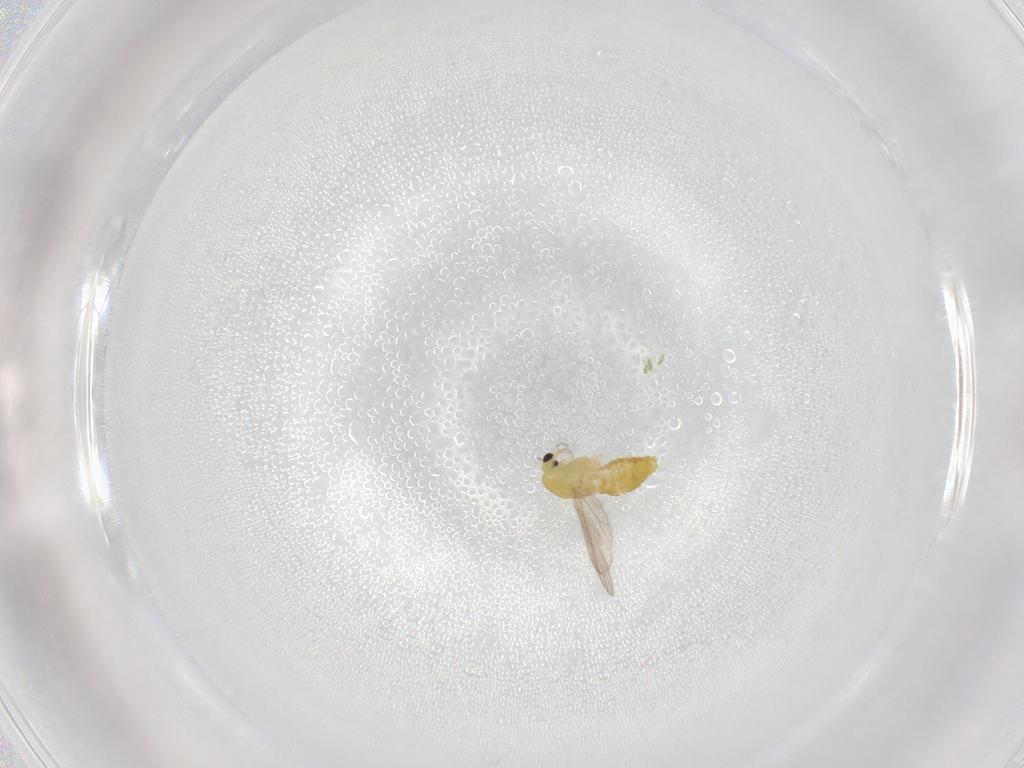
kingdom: Animalia
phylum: Arthropoda
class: Insecta
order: Diptera
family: Chironomidae
